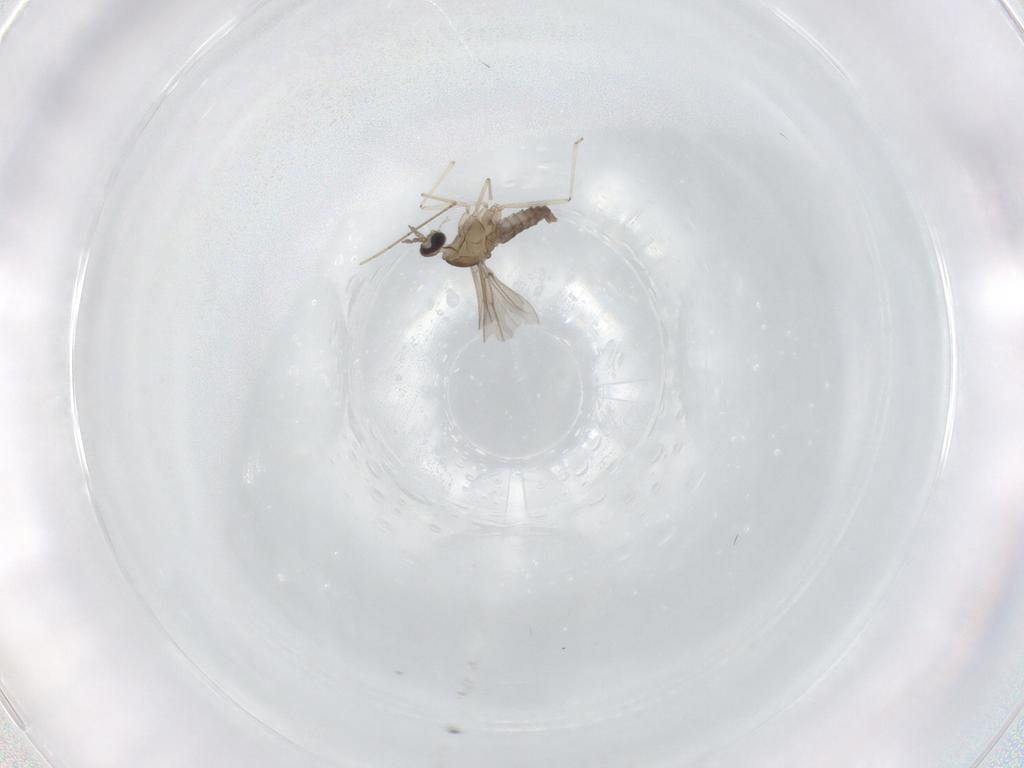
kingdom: Animalia
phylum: Arthropoda
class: Insecta
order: Diptera
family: Cecidomyiidae
